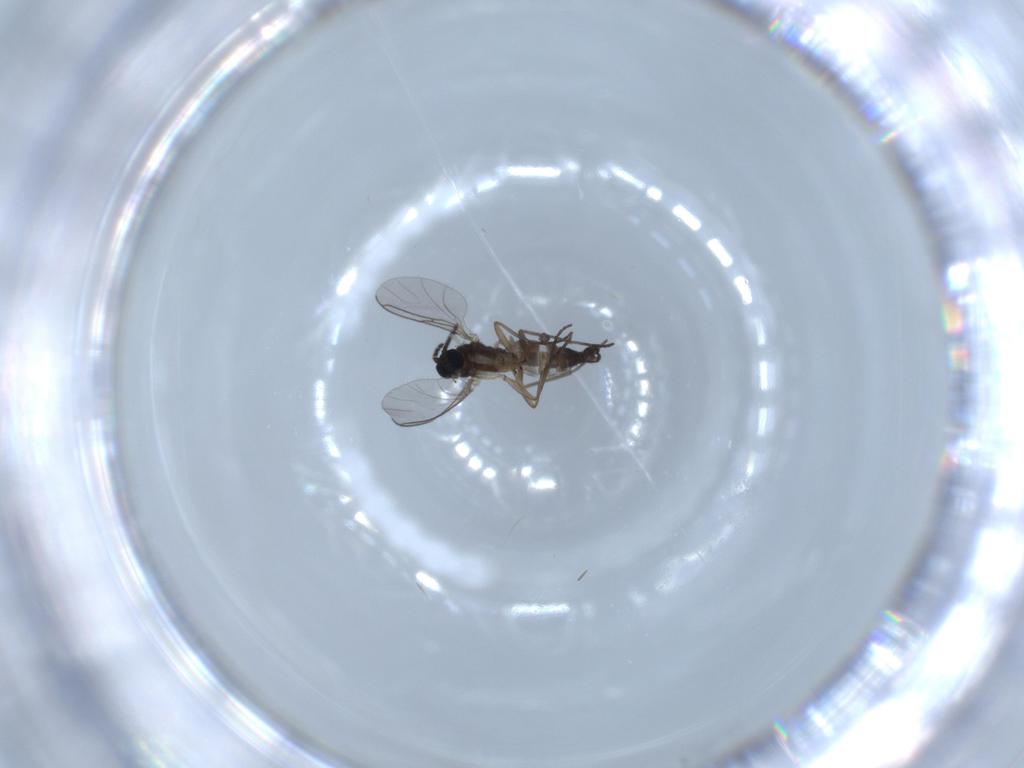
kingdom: Animalia
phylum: Arthropoda
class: Insecta
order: Diptera
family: Sciaridae
